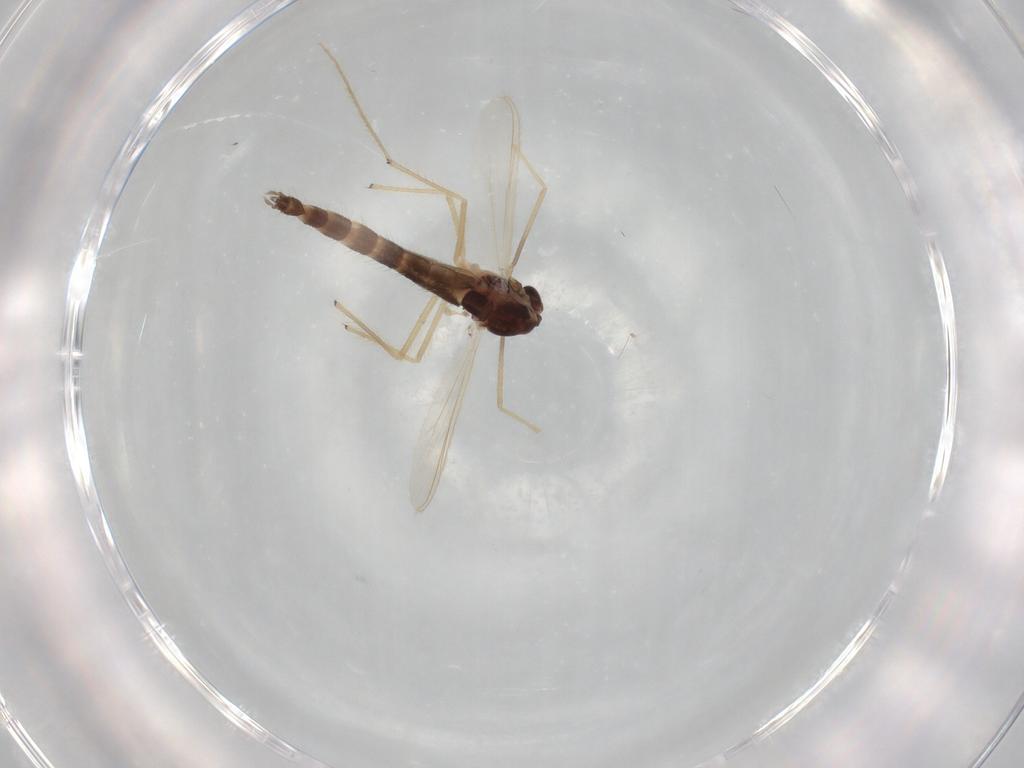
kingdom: Animalia
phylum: Arthropoda
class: Insecta
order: Diptera
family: Chironomidae
